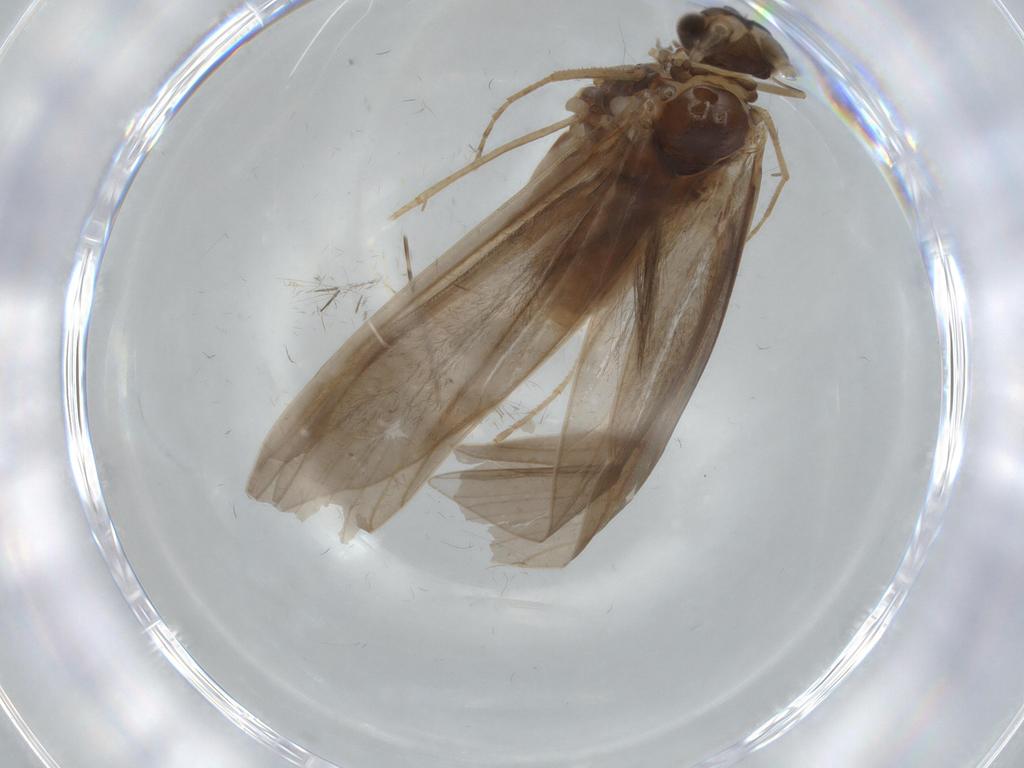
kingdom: Animalia
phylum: Arthropoda
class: Insecta
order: Trichoptera
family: Leptoceridae
